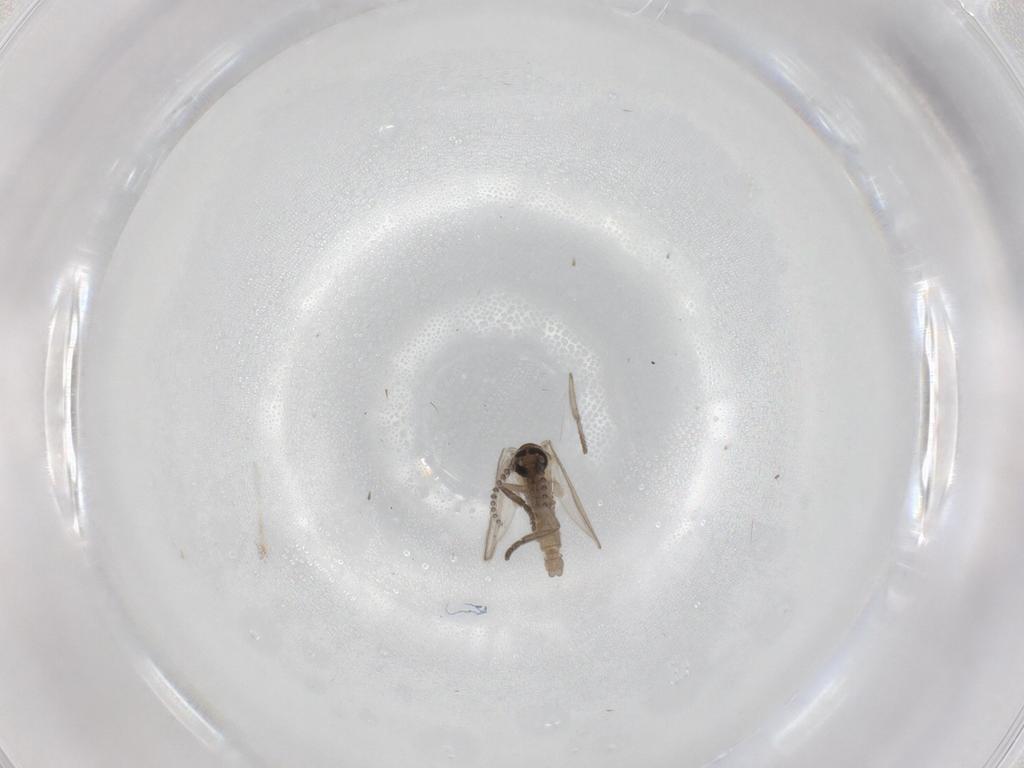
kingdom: Animalia
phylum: Arthropoda
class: Insecta
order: Diptera
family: Psychodidae
